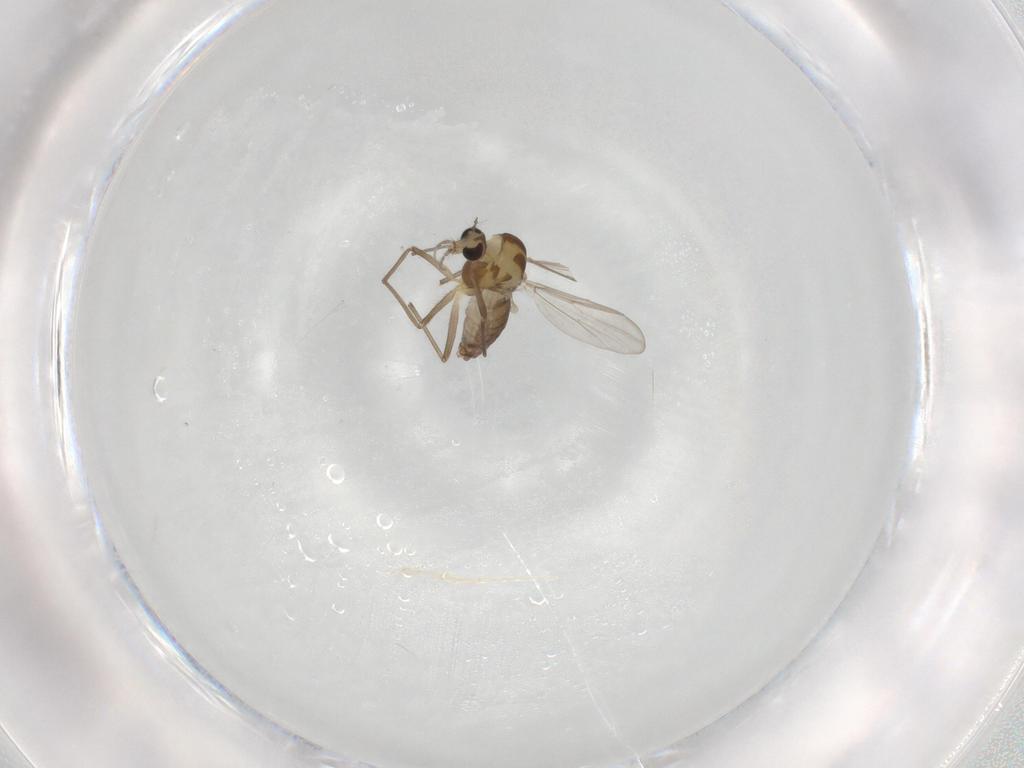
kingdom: Animalia
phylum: Arthropoda
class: Insecta
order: Diptera
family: Chironomidae
